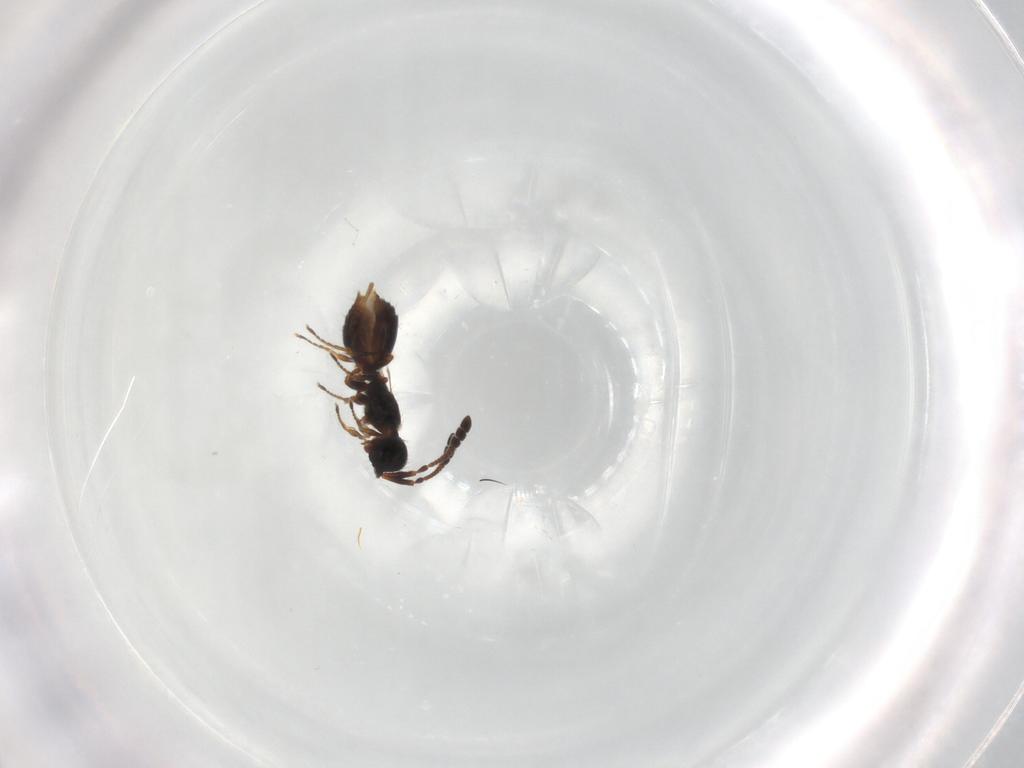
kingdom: Animalia
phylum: Arthropoda
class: Insecta
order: Hymenoptera
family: Diapriidae
